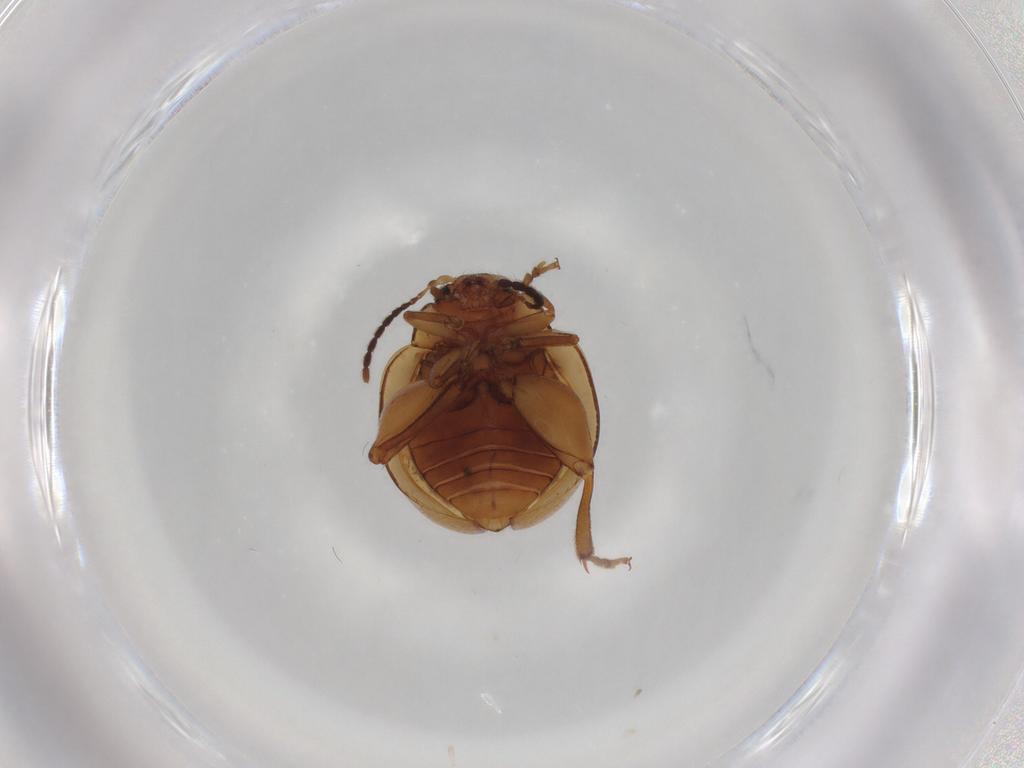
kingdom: Animalia
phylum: Arthropoda
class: Insecta
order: Coleoptera
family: Chrysomelidae
